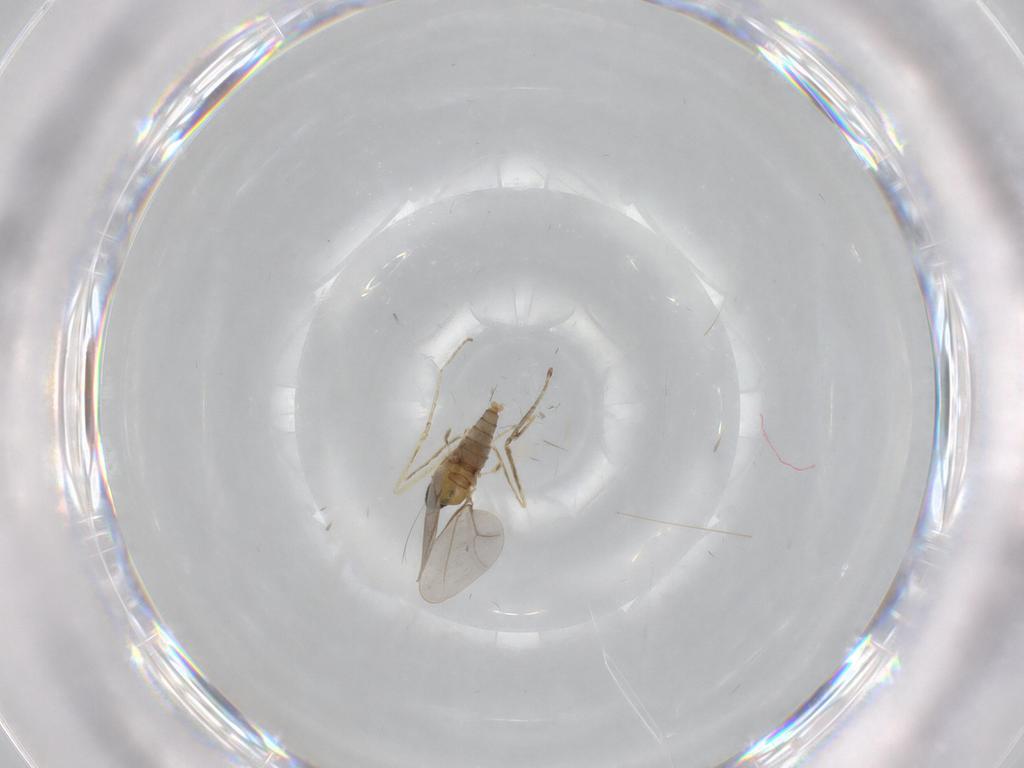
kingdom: Animalia
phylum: Arthropoda
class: Insecta
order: Diptera
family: Cecidomyiidae
